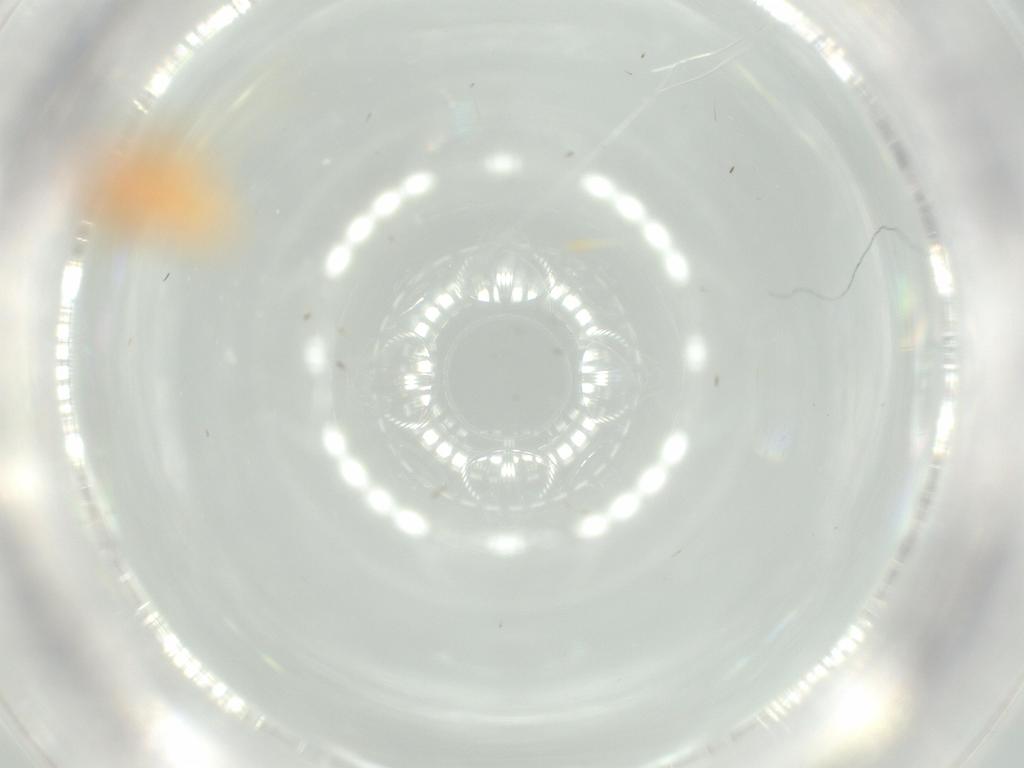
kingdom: Animalia
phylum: Arthropoda
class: Insecta
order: Hemiptera
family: Tropiduchidae
